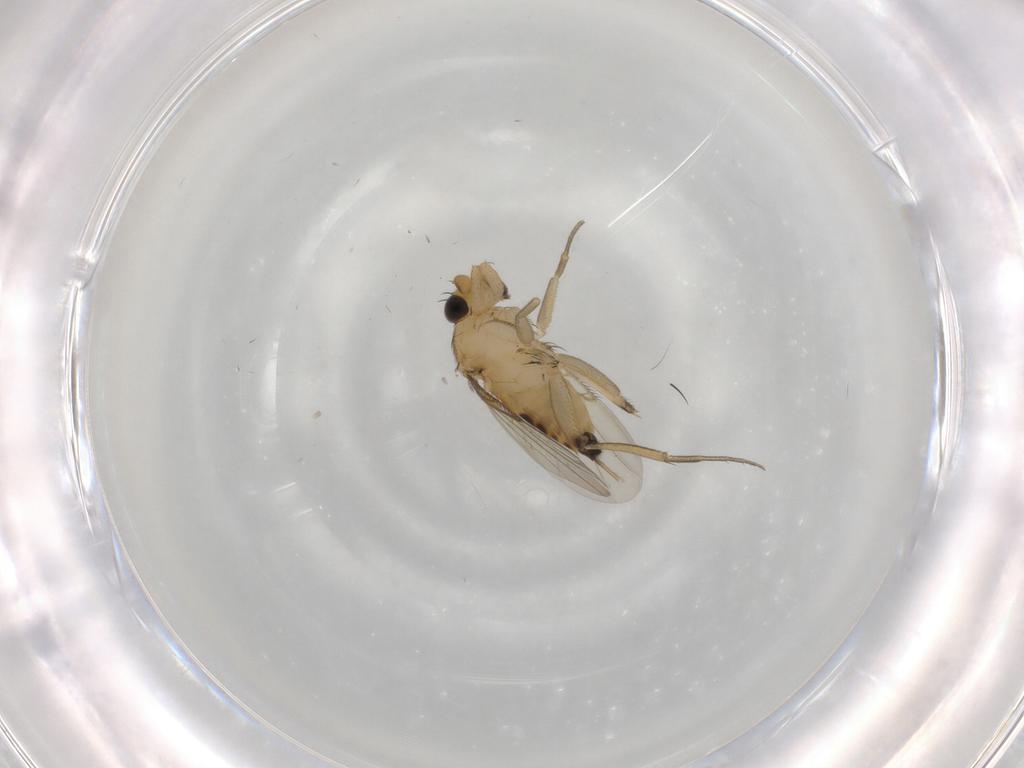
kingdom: Animalia
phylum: Arthropoda
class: Insecta
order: Diptera
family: Phoridae
